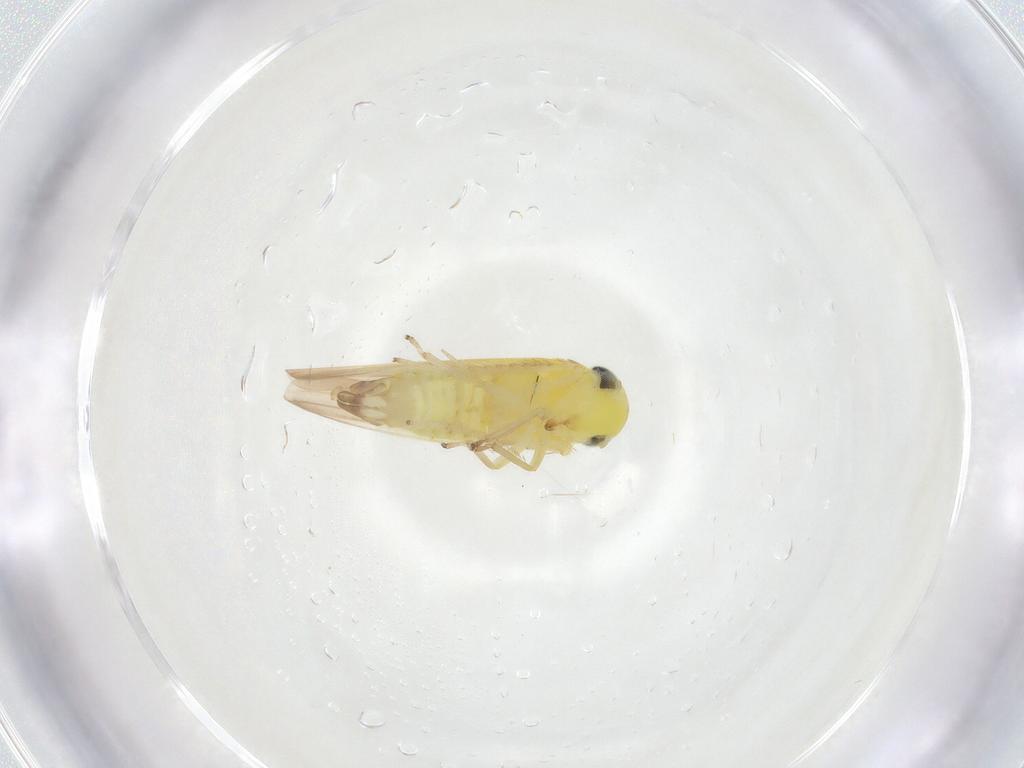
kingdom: Animalia
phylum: Arthropoda
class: Insecta
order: Hemiptera
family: Cicadellidae
